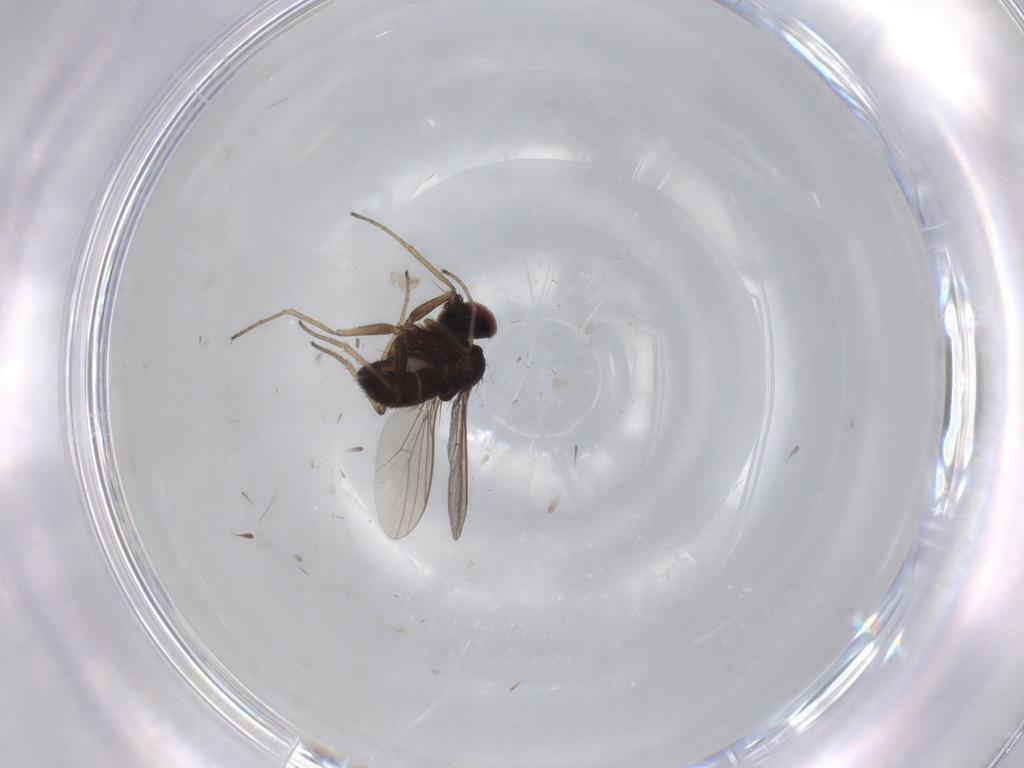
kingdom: Animalia
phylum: Arthropoda
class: Insecta
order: Diptera
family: Dolichopodidae
